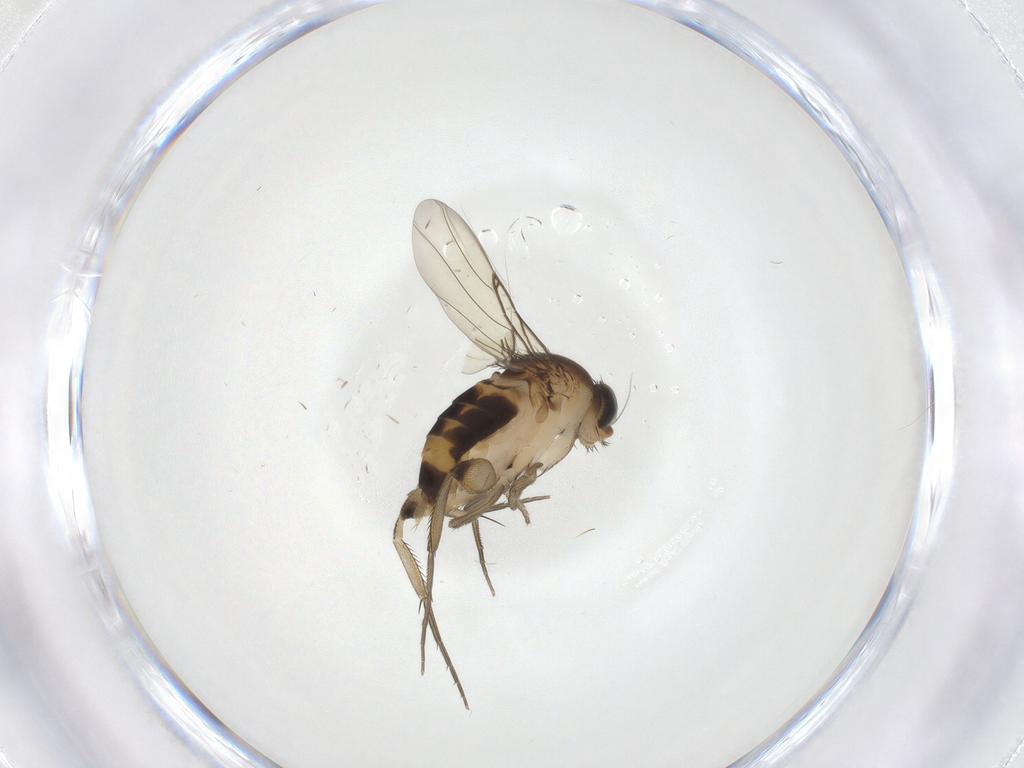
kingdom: Animalia
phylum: Arthropoda
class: Insecta
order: Diptera
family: Phoridae
